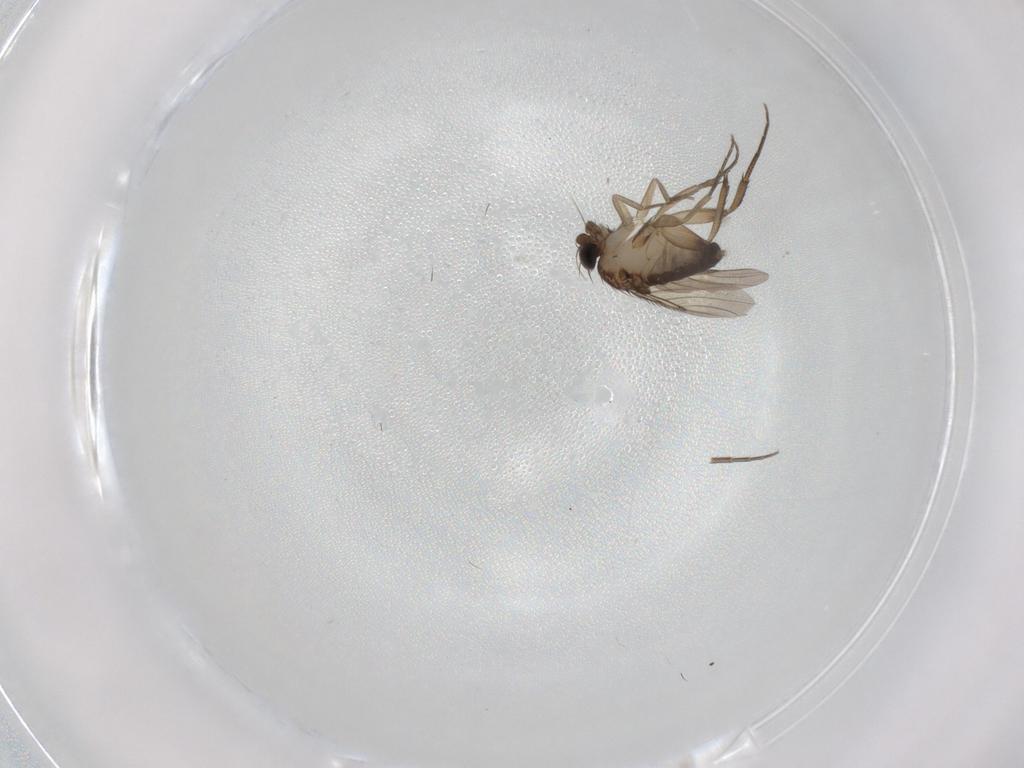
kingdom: Animalia
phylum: Arthropoda
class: Insecta
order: Diptera
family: Phoridae
